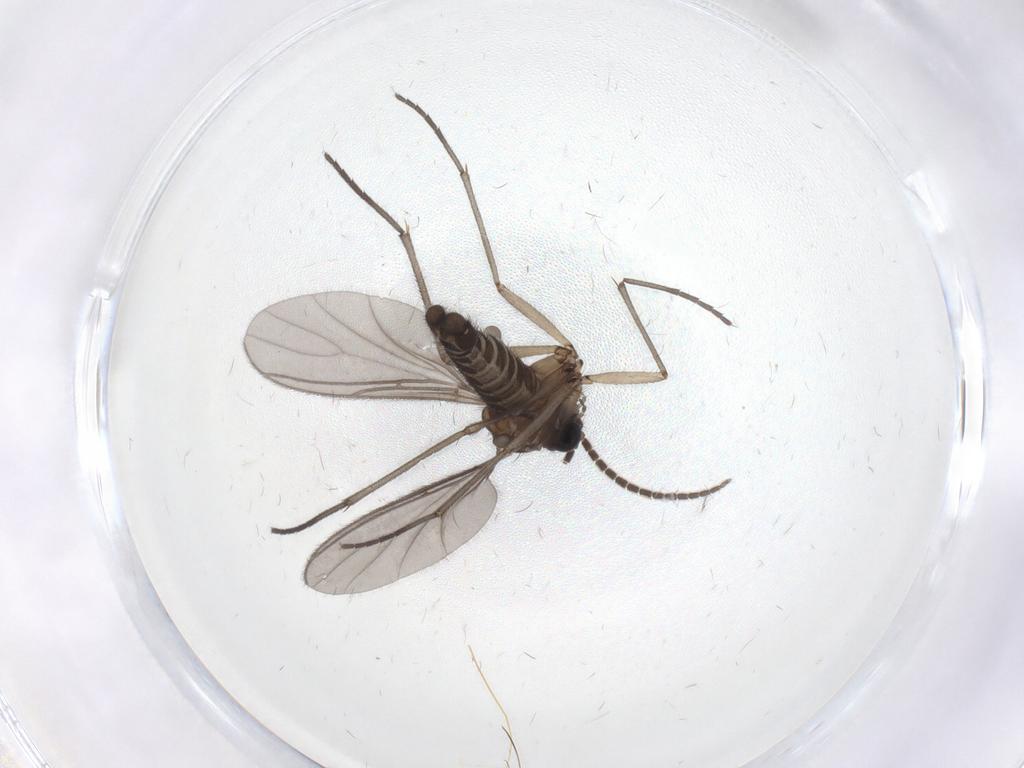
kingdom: Animalia
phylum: Arthropoda
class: Insecta
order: Diptera
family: Sciaridae
